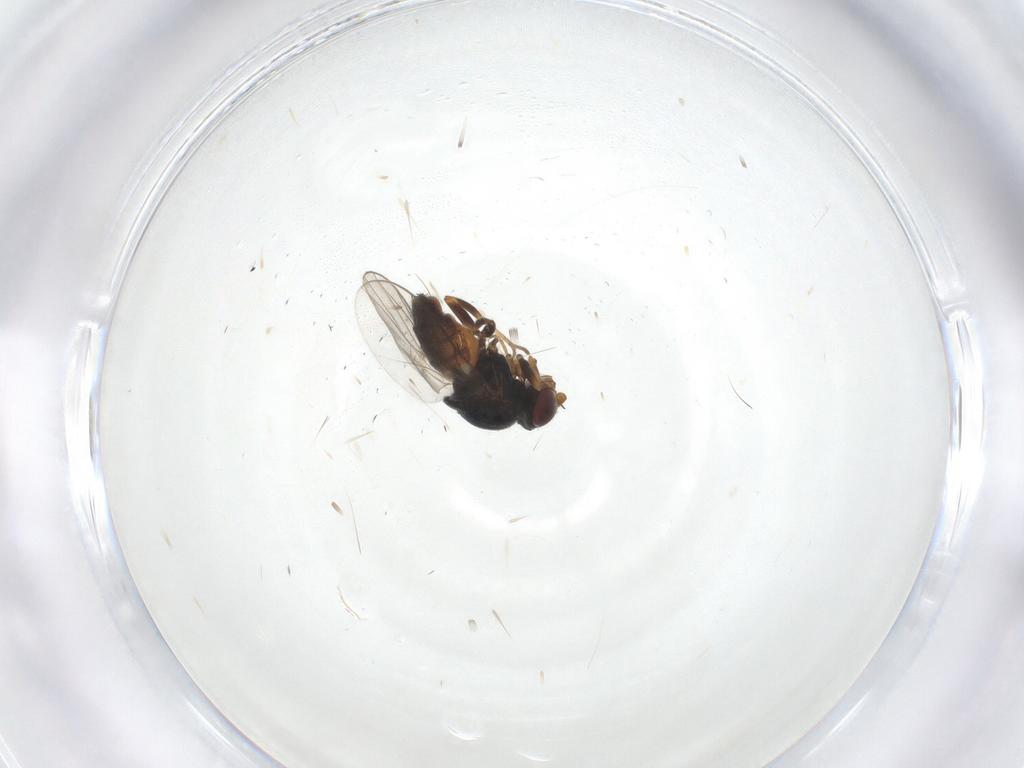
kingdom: Animalia
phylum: Arthropoda
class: Insecta
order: Diptera
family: Chloropidae
